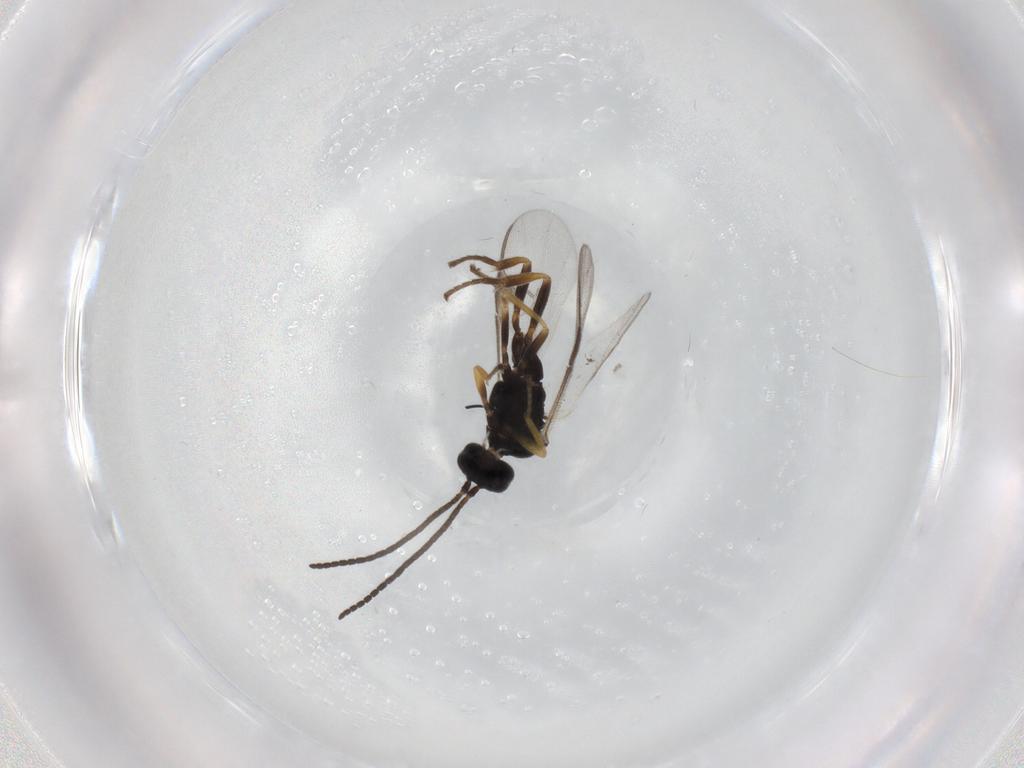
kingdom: Animalia
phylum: Arthropoda
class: Insecta
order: Hymenoptera
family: Braconidae
